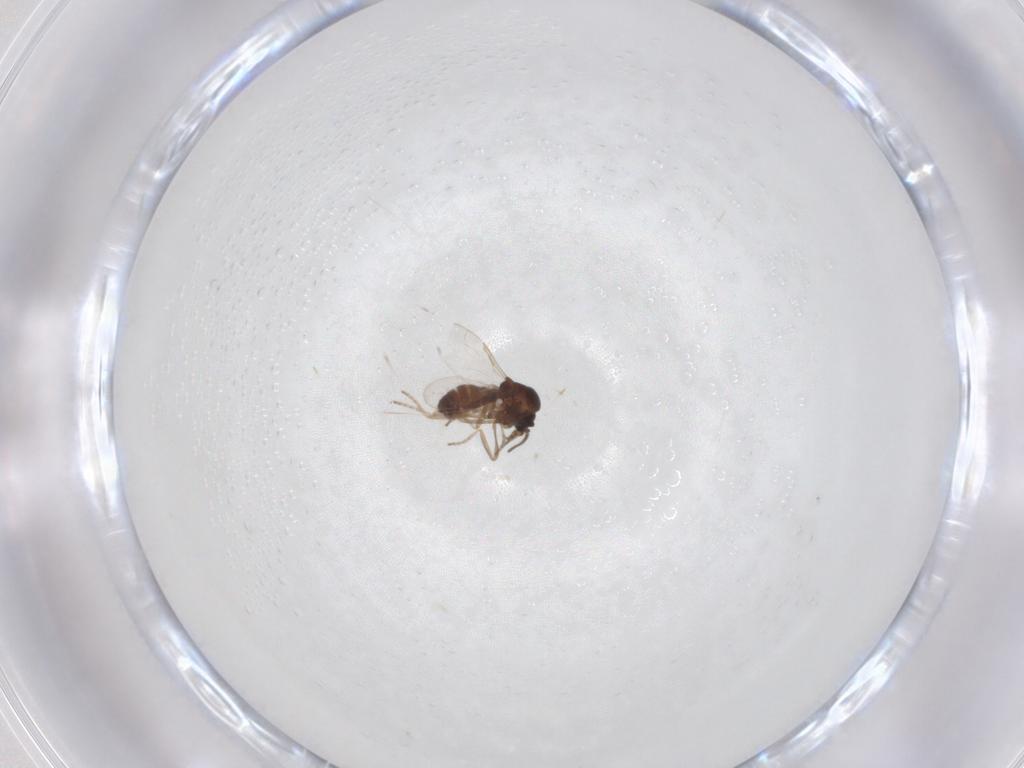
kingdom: Animalia
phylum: Arthropoda
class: Insecta
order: Diptera
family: Ceratopogonidae
